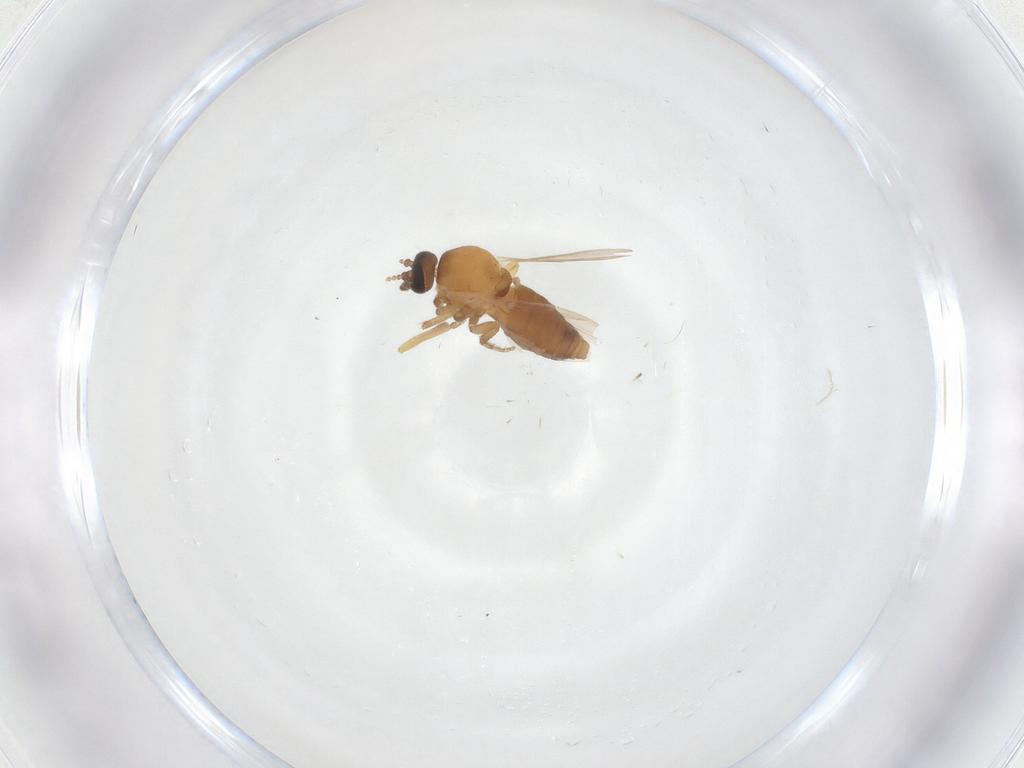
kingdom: Animalia
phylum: Arthropoda
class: Insecta
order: Diptera
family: Ceratopogonidae
